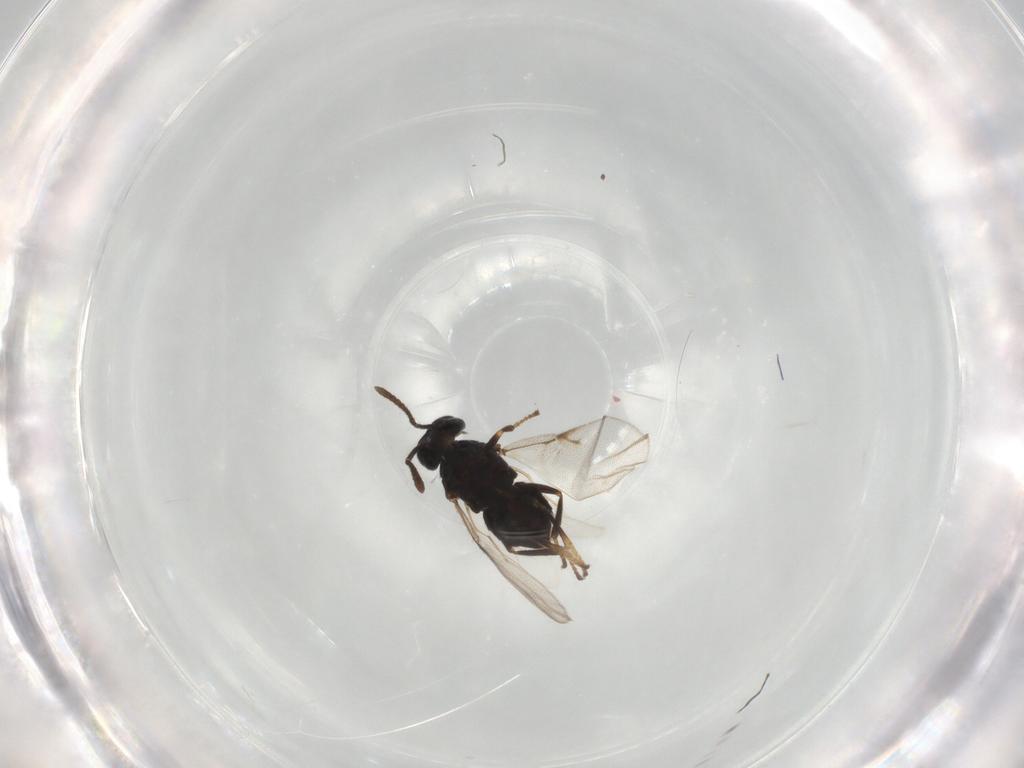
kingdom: Animalia
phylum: Arthropoda
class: Insecta
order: Hymenoptera
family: Encyrtidae
